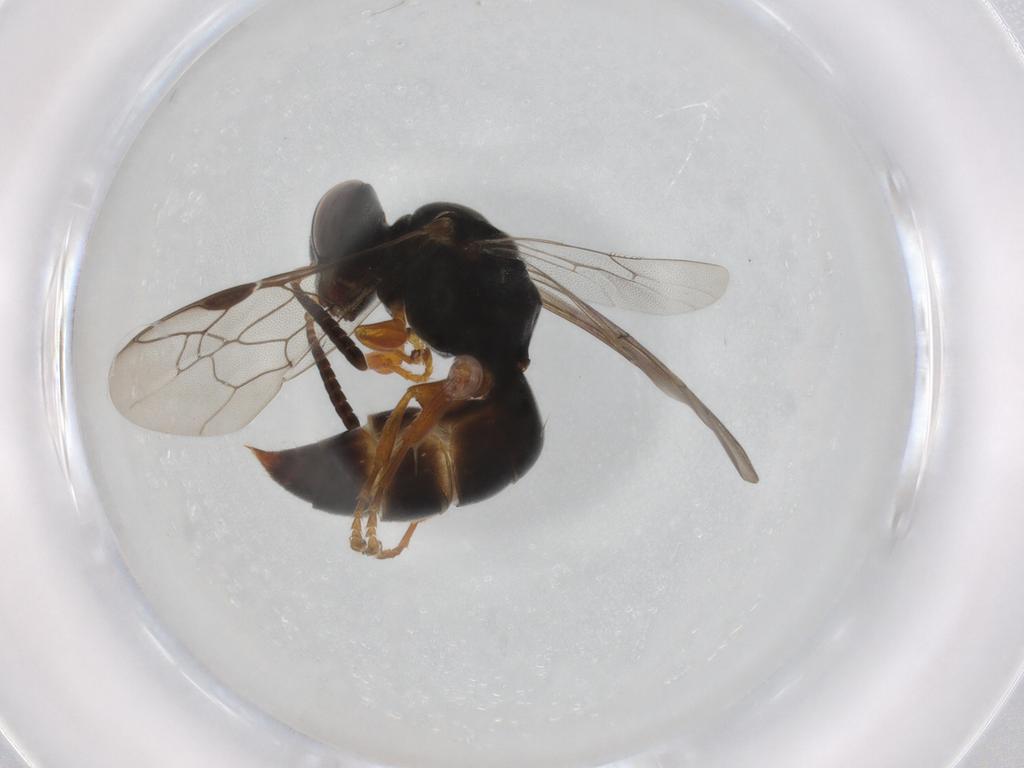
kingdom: Animalia
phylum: Arthropoda
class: Insecta
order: Hymenoptera
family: Crabronidae
